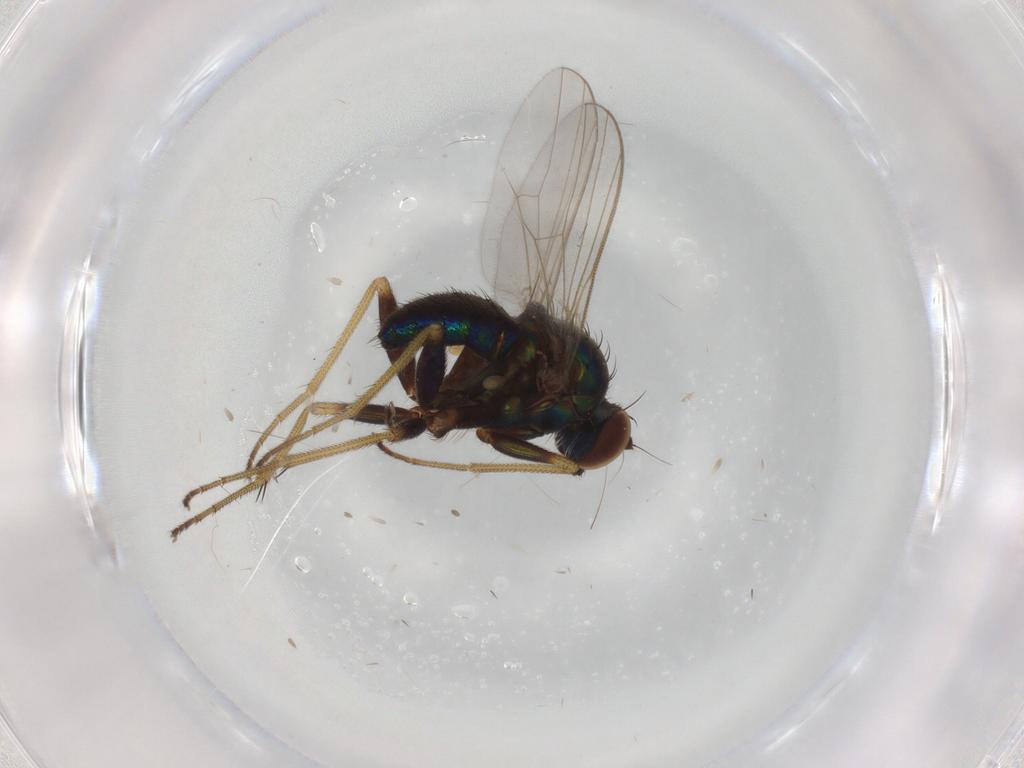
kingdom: Animalia
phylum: Arthropoda
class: Insecta
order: Diptera
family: Dolichopodidae
